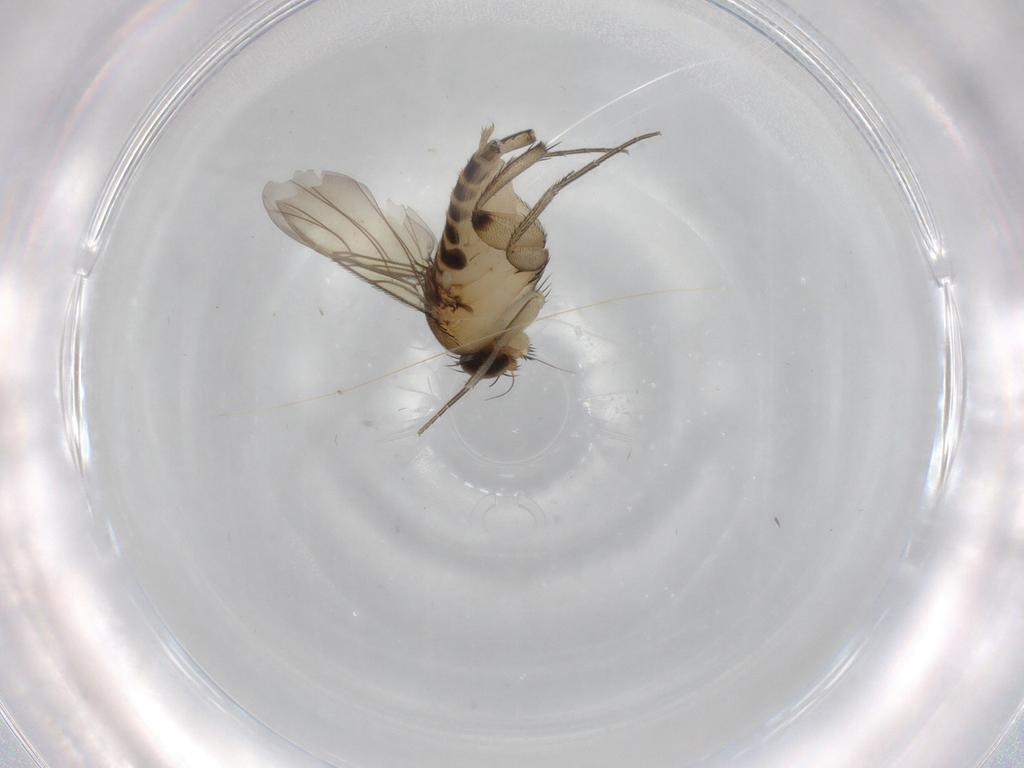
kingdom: Animalia
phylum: Arthropoda
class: Insecta
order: Diptera
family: Phoridae
